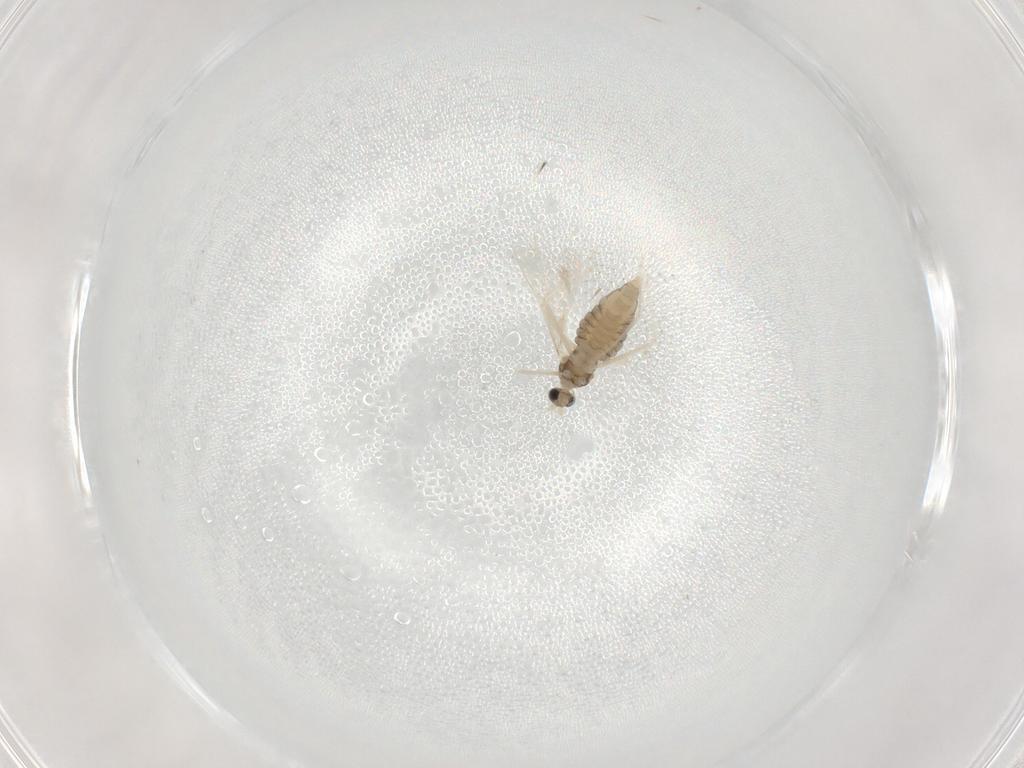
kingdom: Animalia
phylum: Arthropoda
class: Insecta
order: Diptera
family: Cecidomyiidae
